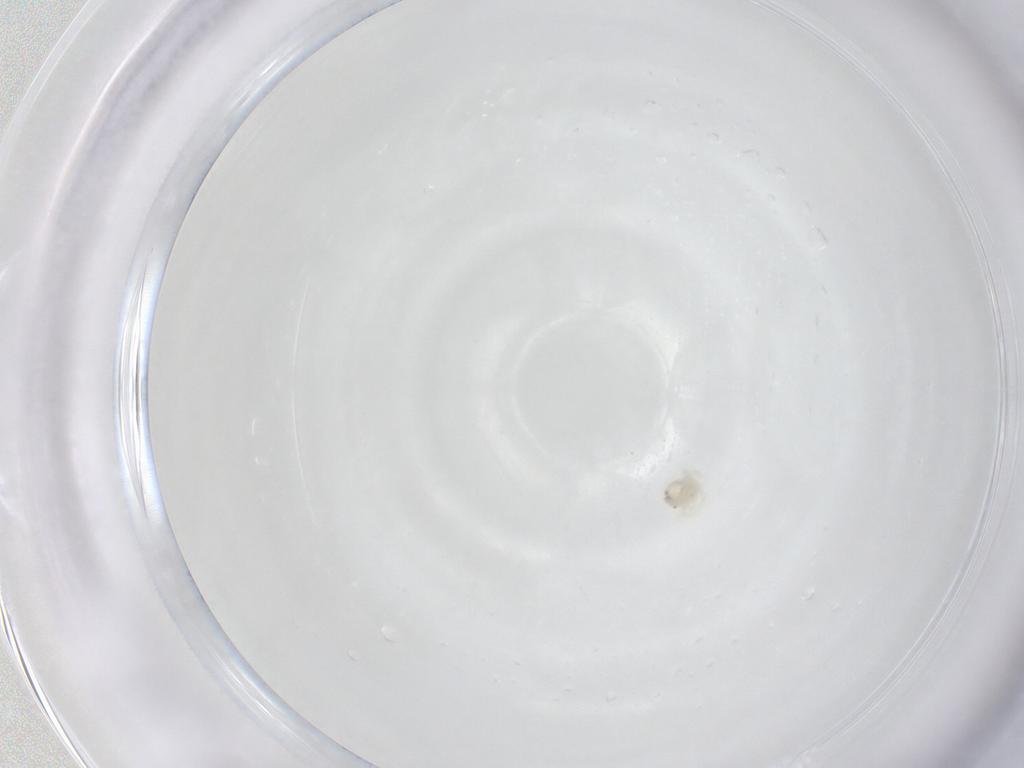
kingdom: Animalia
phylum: Arthropoda
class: Arachnida
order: Trombidiformes
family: Anystidae
